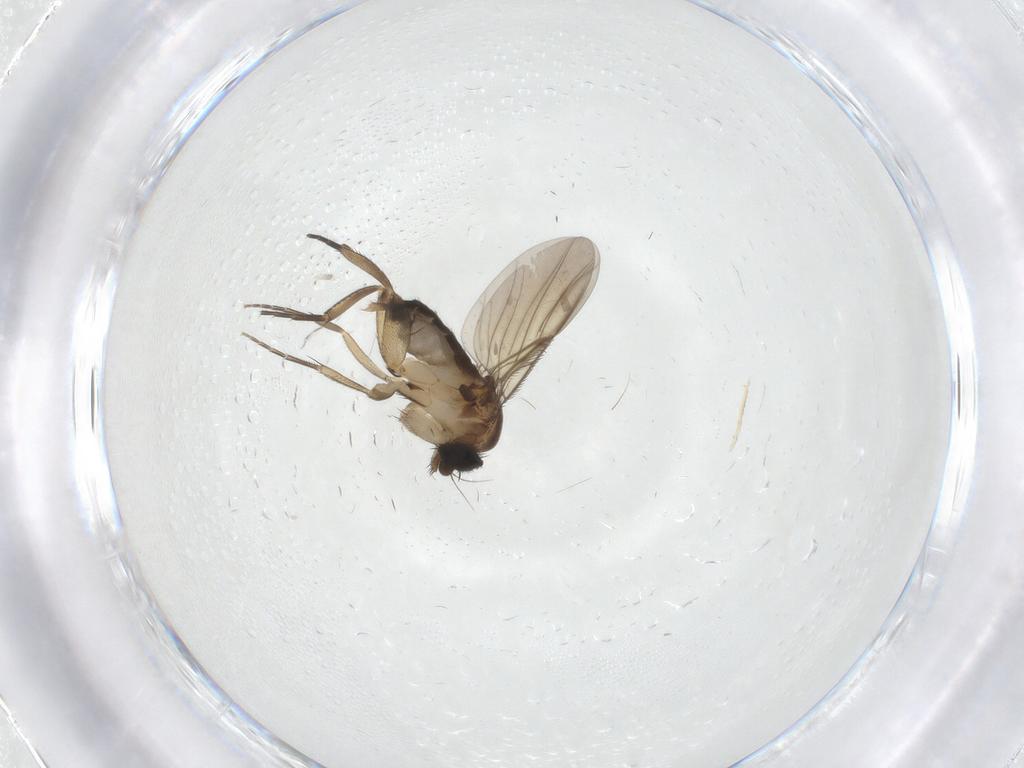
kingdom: Animalia
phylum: Arthropoda
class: Insecta
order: Diptera
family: Phoridae
